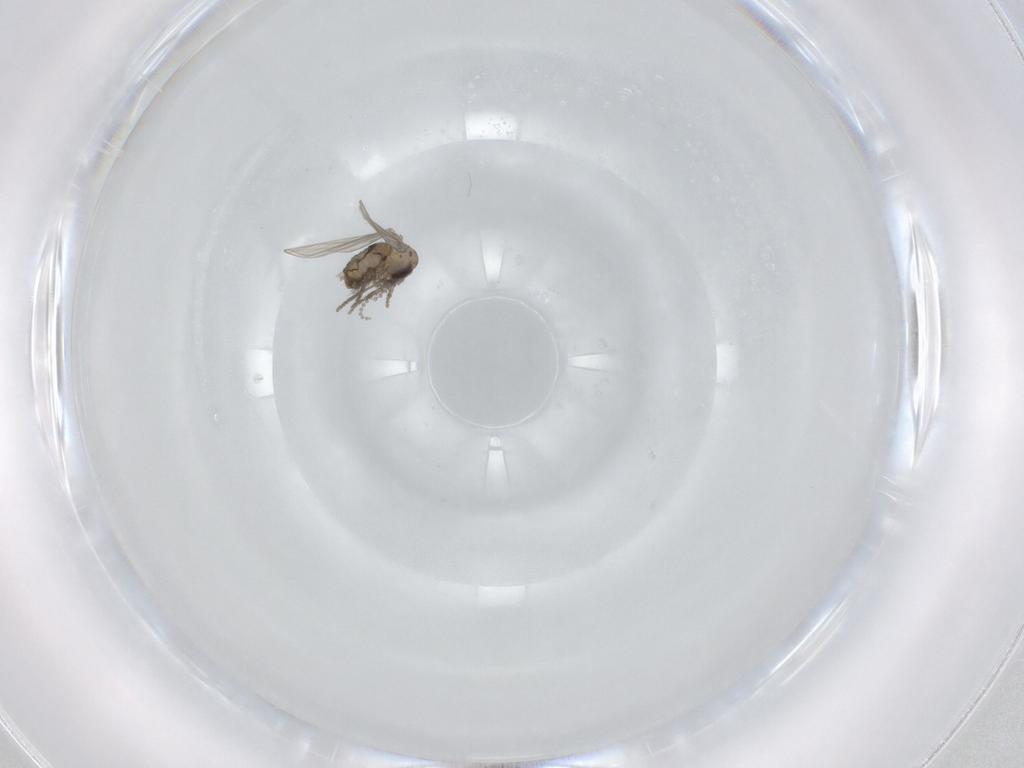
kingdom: Animalia
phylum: Arthropoda
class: Insecta
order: Diptera
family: Psychodidae
